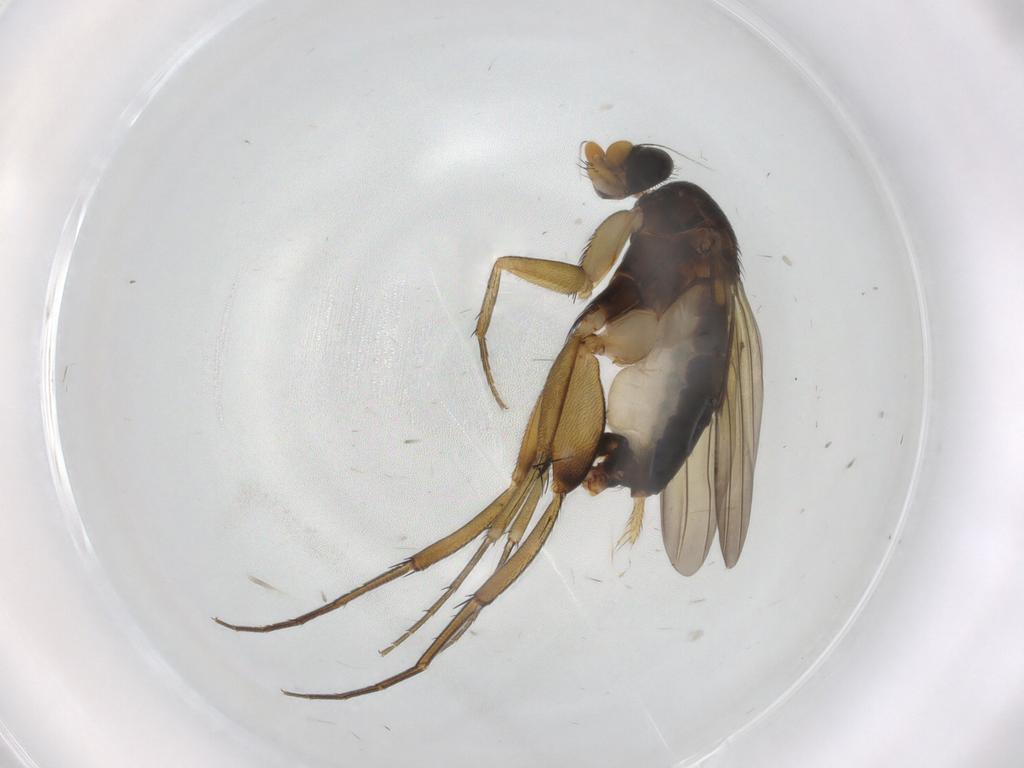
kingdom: Animalia
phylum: Arthropoda
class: Insecta
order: Diptera
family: Phoridae
